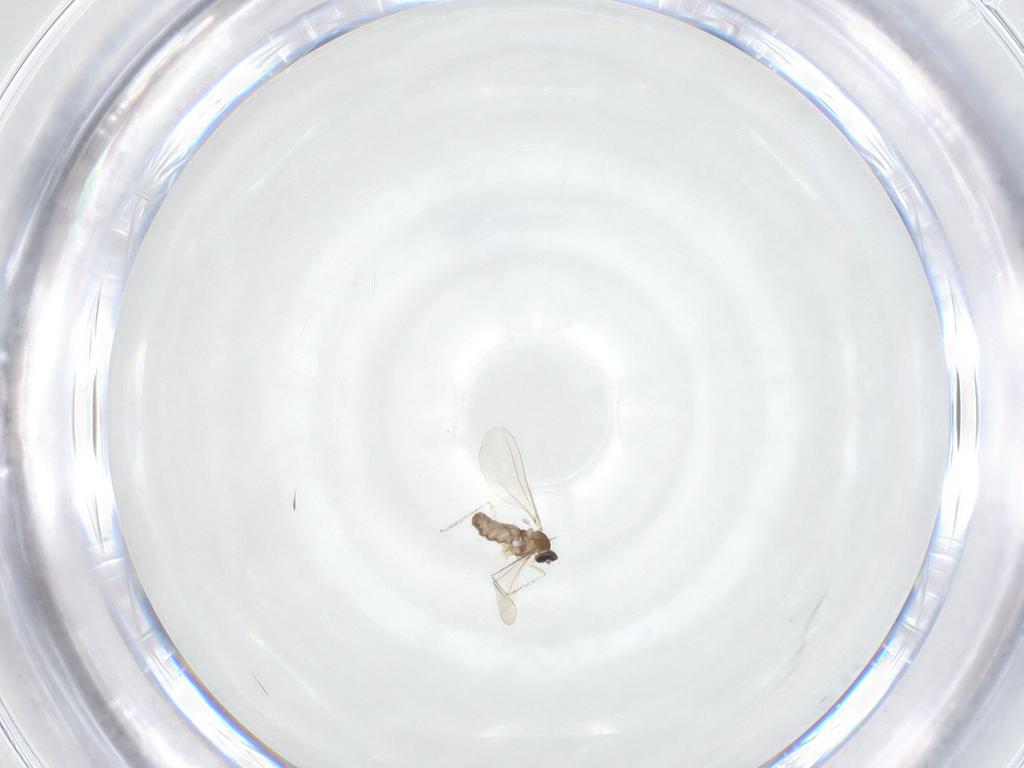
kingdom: Animalia
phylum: Arthropoda
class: Insecta
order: Diptera
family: Cecidomyiidae
